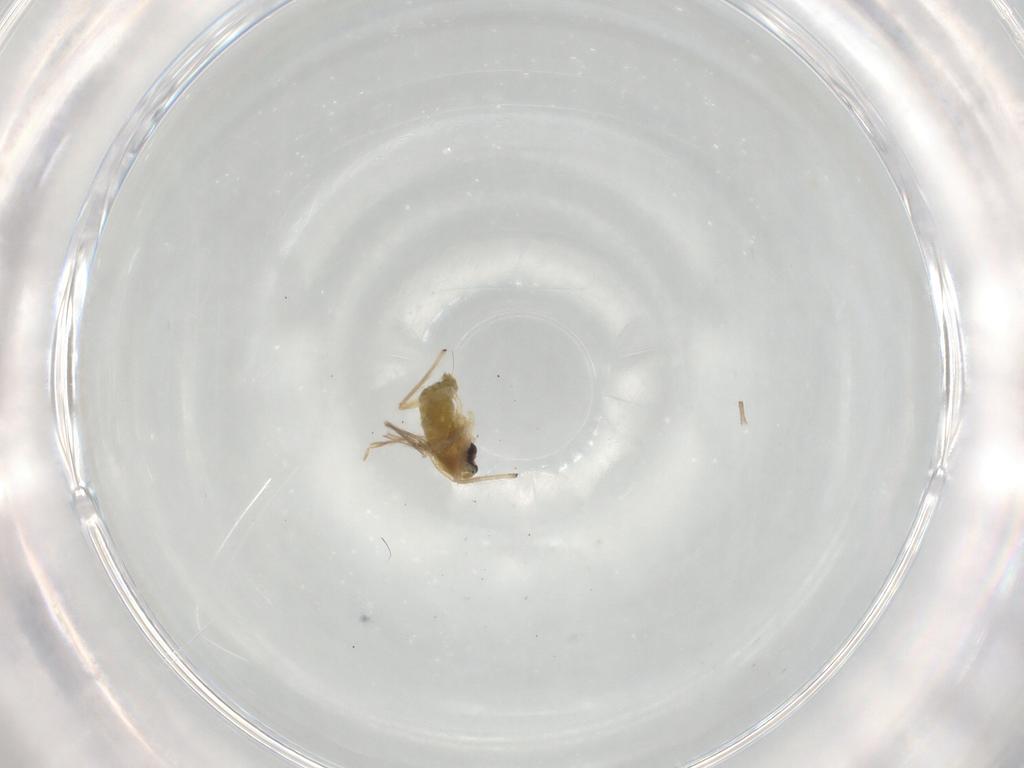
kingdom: Animalia
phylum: Arthropoda
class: Insecta
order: Diptera
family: Chironomidae
